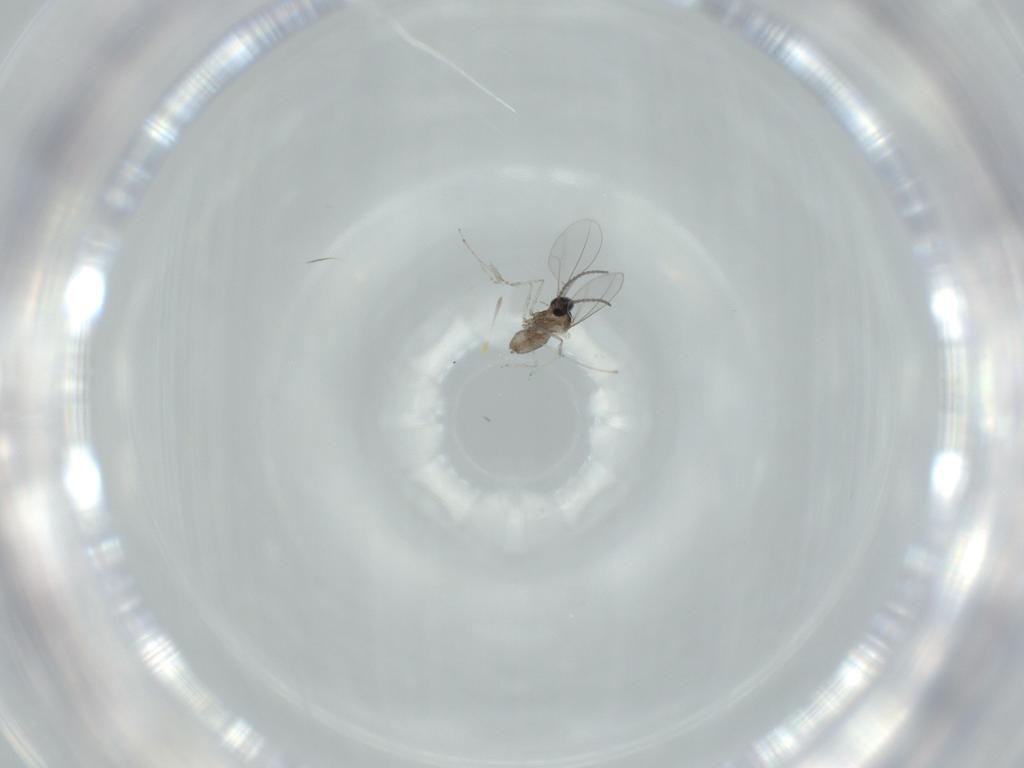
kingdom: Animalia
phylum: Arthropoda
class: Insecta
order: Diptera
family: Cecidomyiidae
